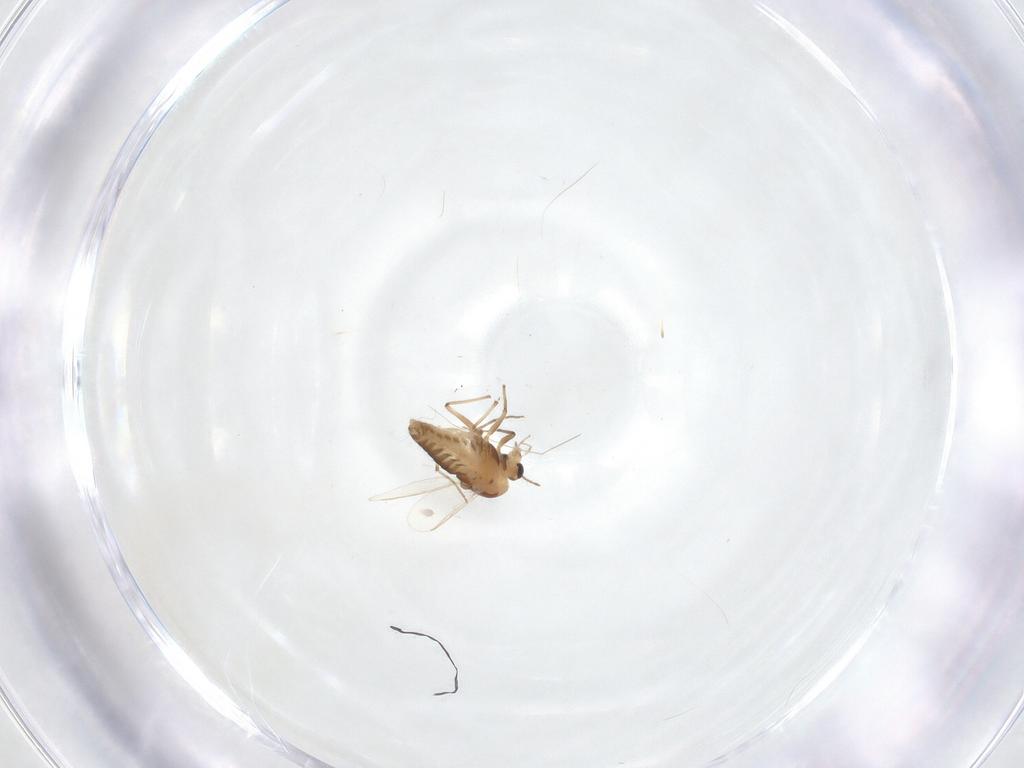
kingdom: Animalia
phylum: Arthropoda
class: Insecta
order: Diptera
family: Chironomidae
